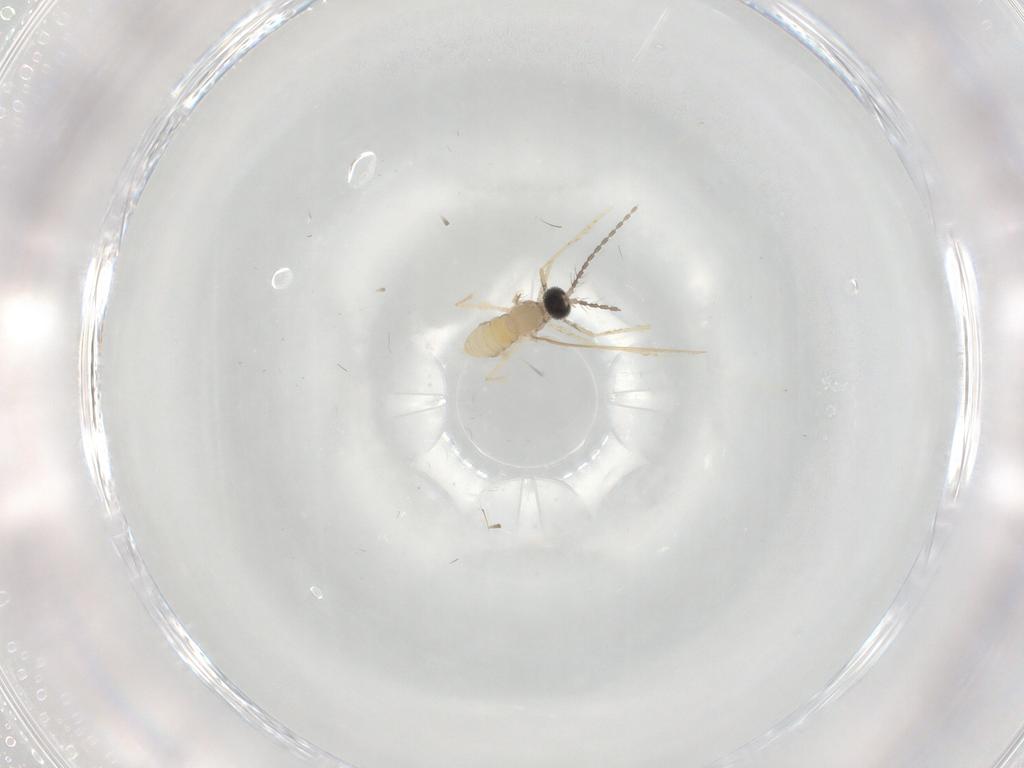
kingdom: Animalia
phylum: Arthropoda
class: Insecta
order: Diptera
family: Cecidomyiidae
